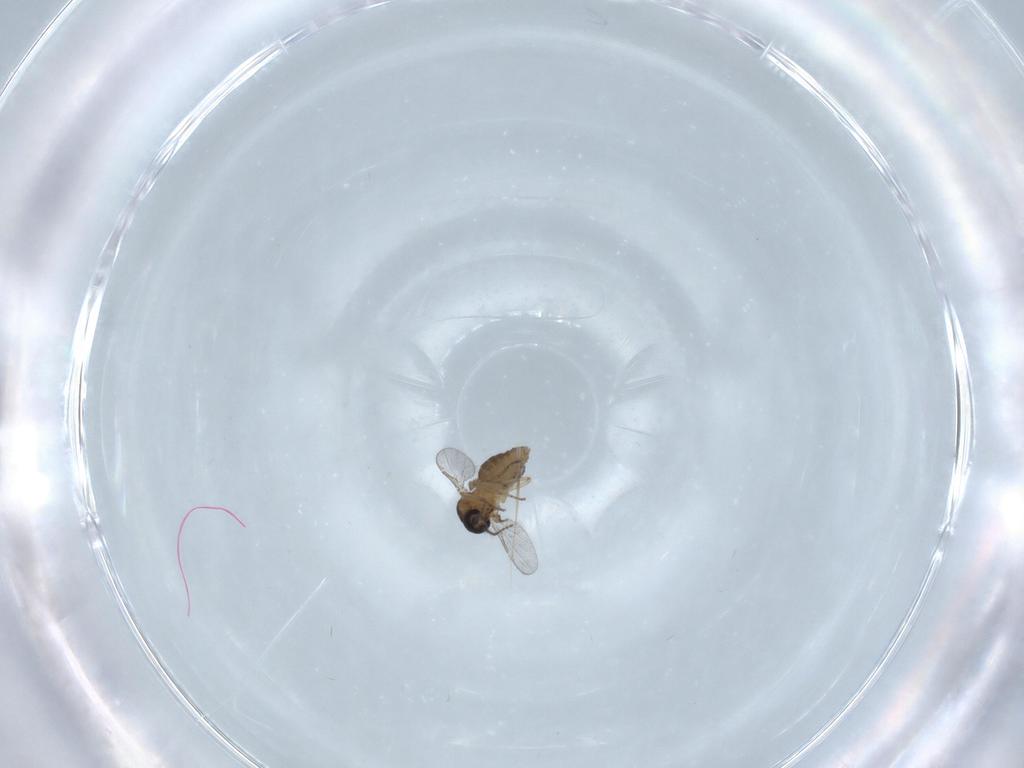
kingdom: Animalia
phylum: Arthropoda
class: Insecta
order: Diptera
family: Ceratopogonidae
